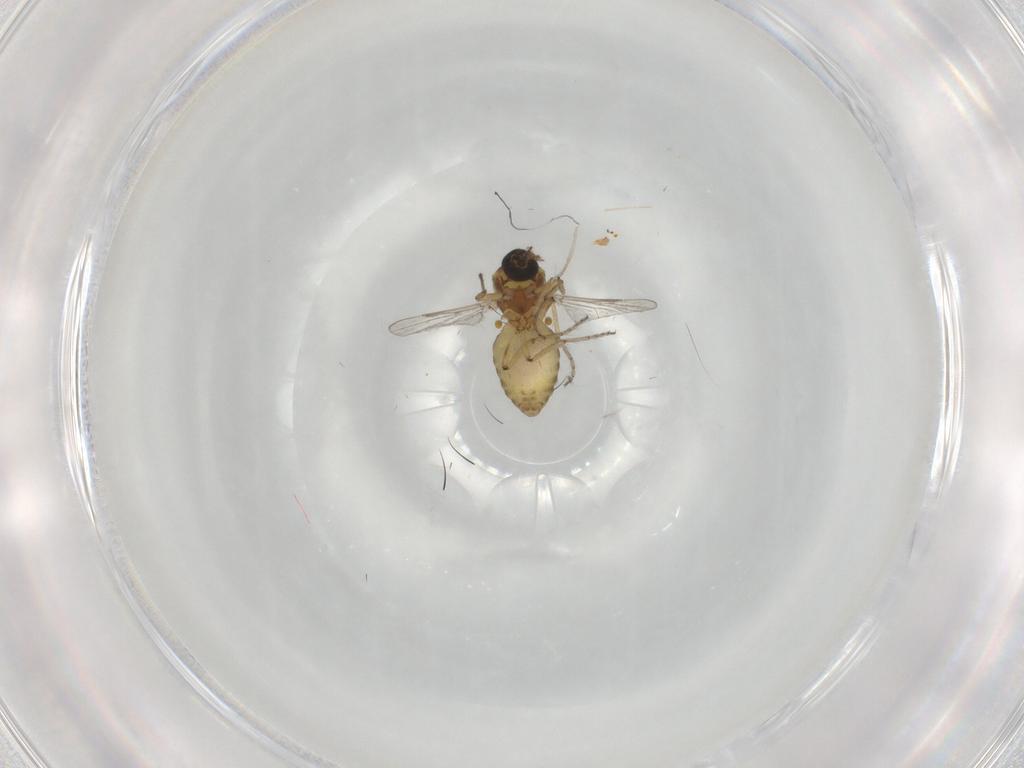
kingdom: Animalia
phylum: Arthropoda
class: Insecta
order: Diptera
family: Ceratopogonidae
